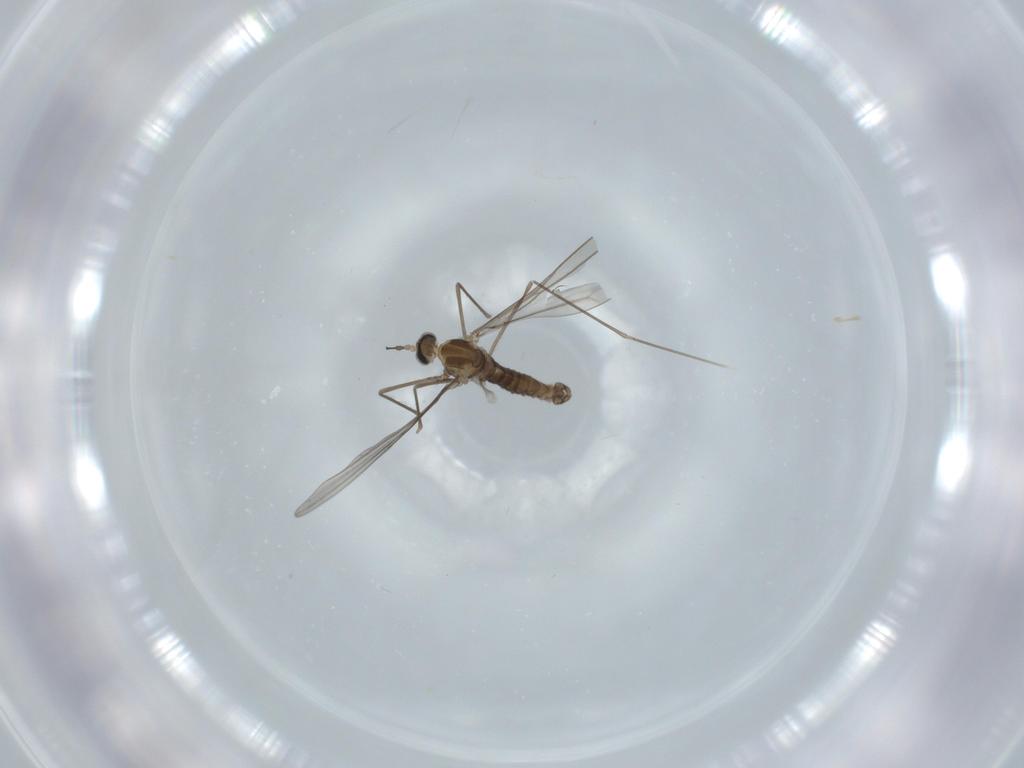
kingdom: Animalia
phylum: Arthropoda
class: Insecta
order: Diptera
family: Cecidomyiidae
